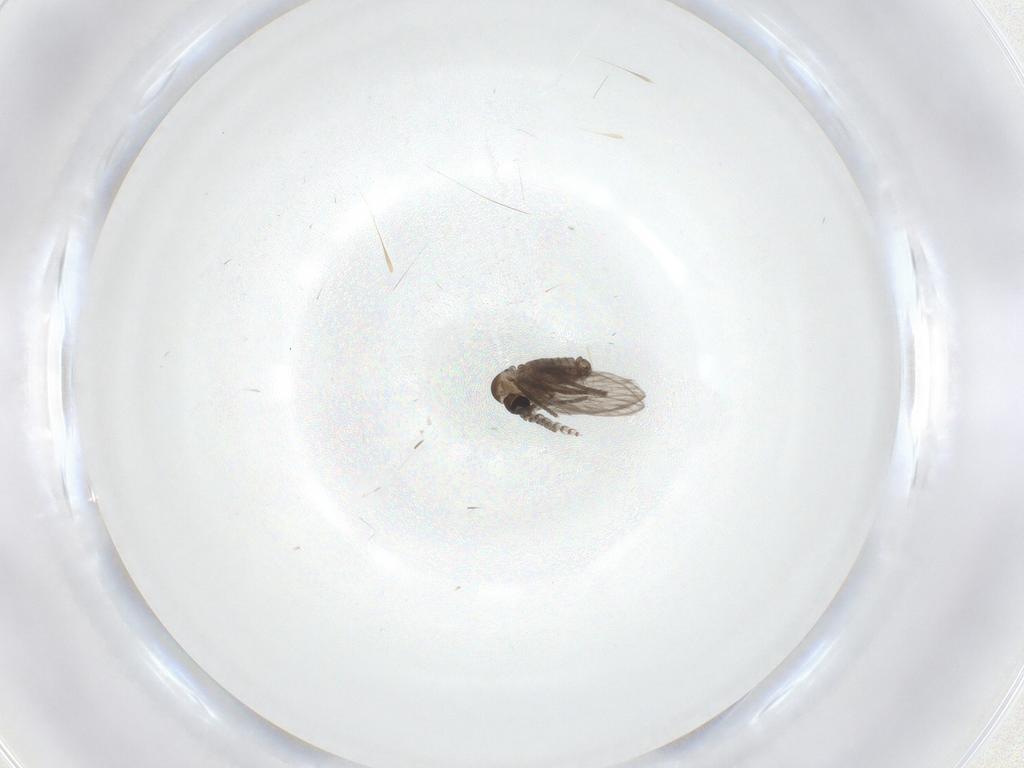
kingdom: Animalia
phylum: Arthropoda
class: Insecta
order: Diptera
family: Psychodidae
